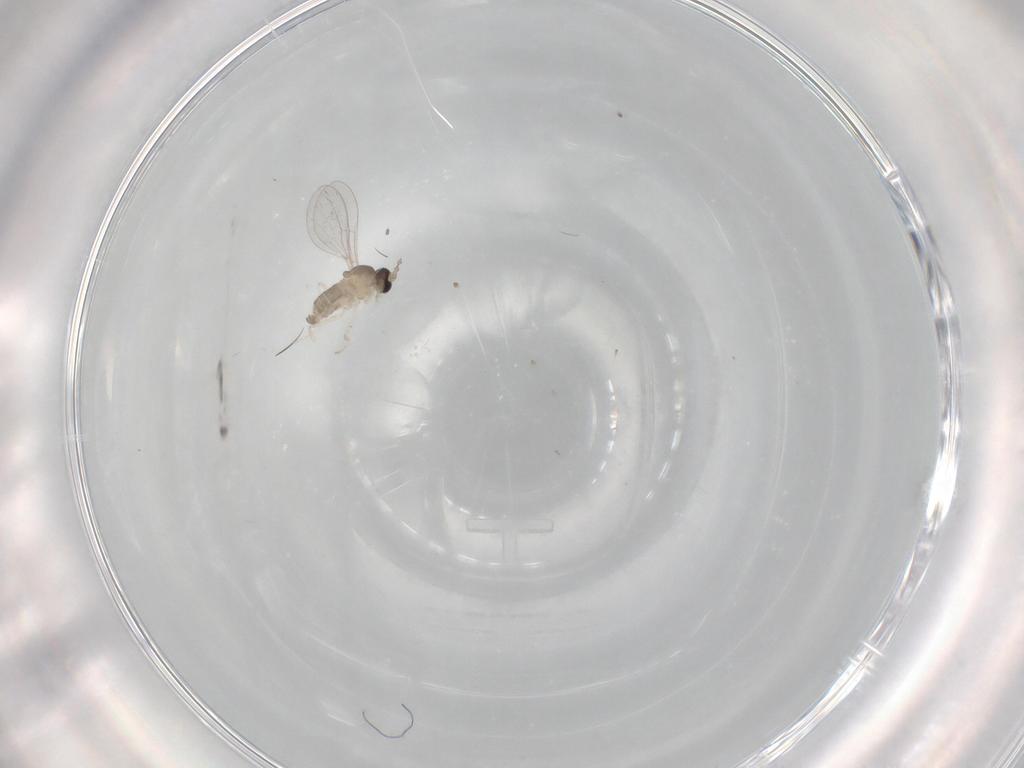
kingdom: Animalia
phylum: Arthropoda
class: Insecta
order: Diptera
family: Cecidomyiidae
